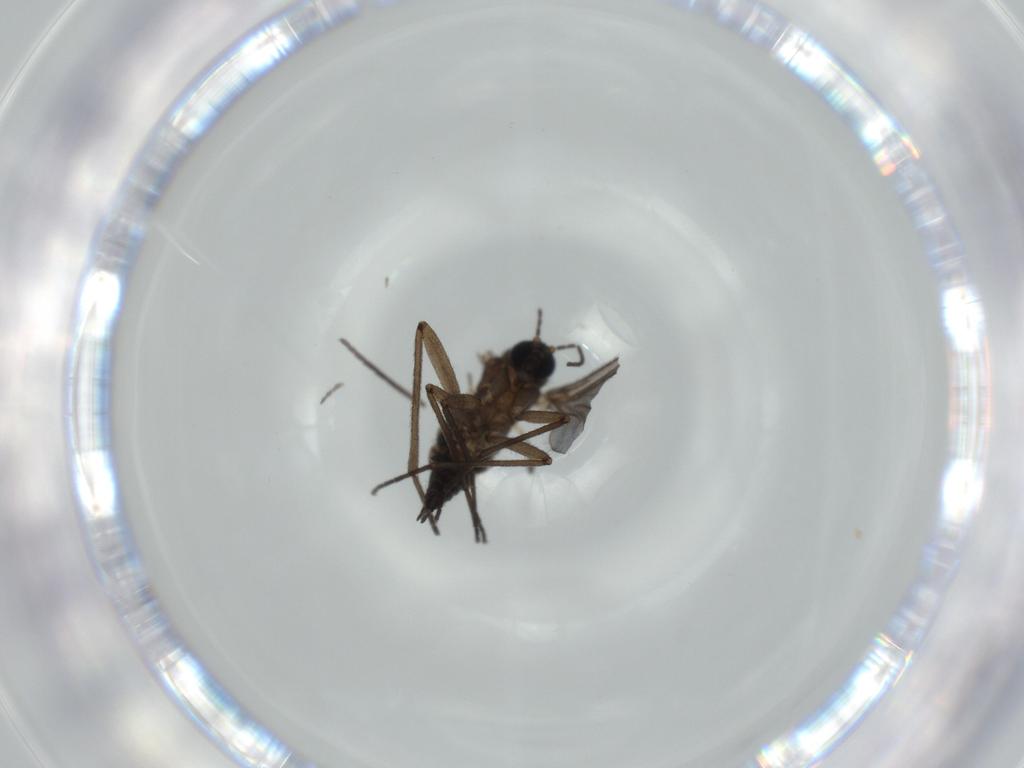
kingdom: Animalia
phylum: Arthropoda
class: Insecta
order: Diptera
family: Sciaridae
